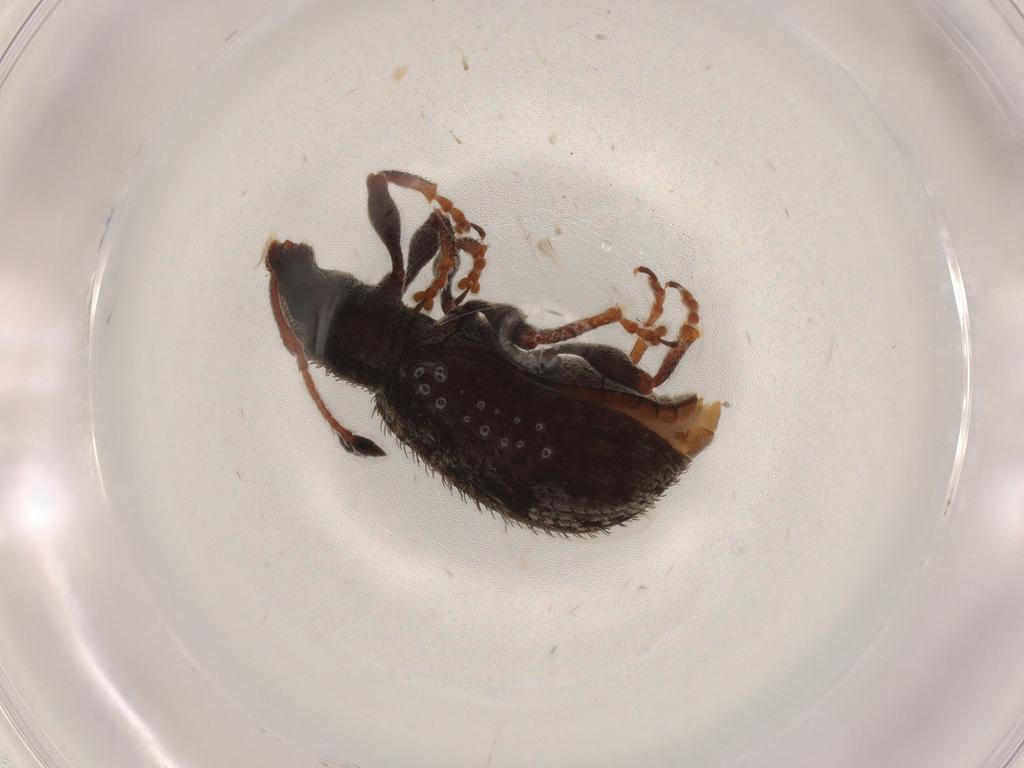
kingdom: Animalia
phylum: Arthropoda
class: Insecta
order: Coleoptera
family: Curculionidae
